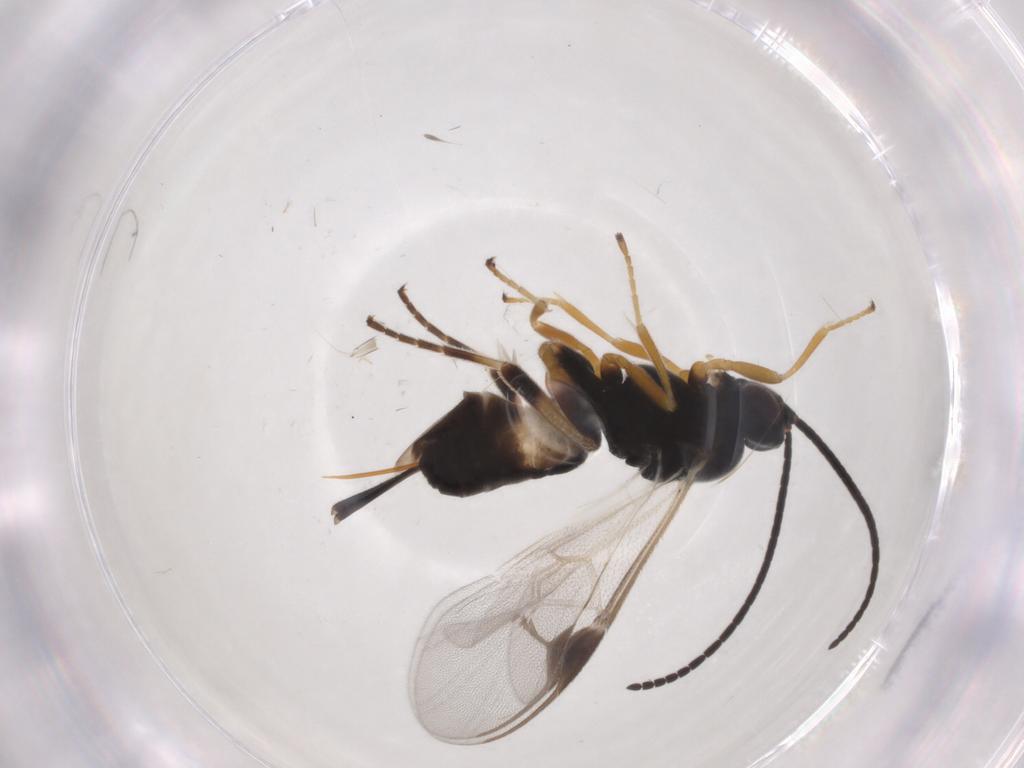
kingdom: Animalia
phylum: Arthropoda
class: Insecta
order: Hymenoptera
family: Braconidae
